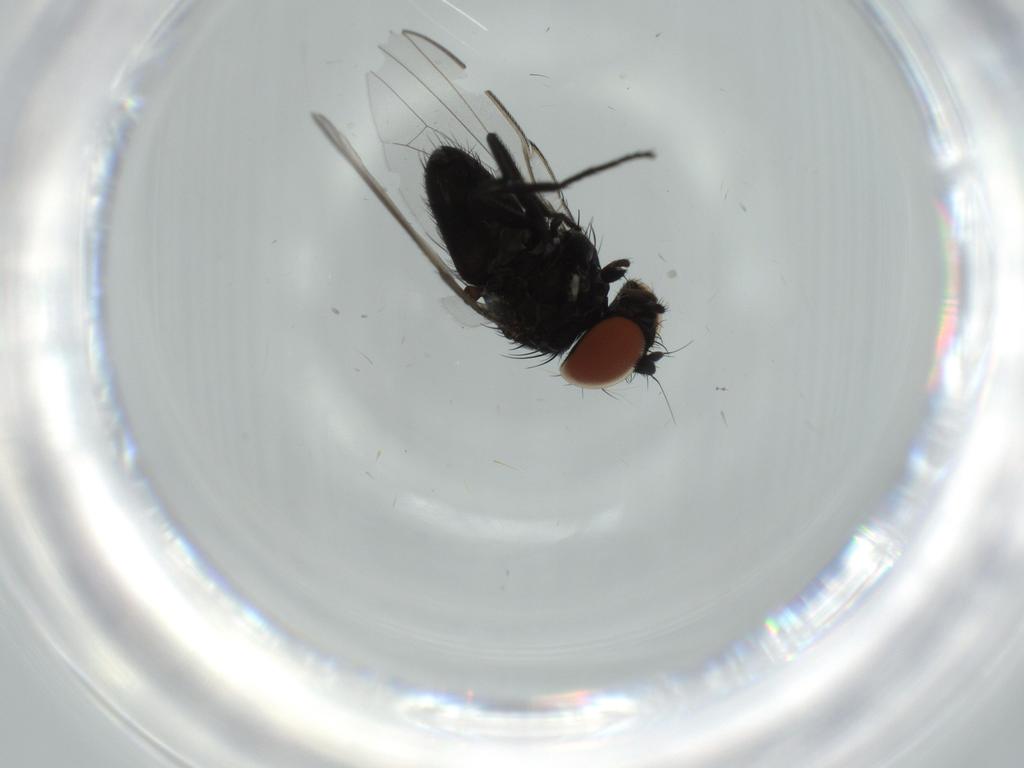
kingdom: Animalia
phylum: Arthropoda
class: Insecta
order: Diptera
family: Milichiidae
